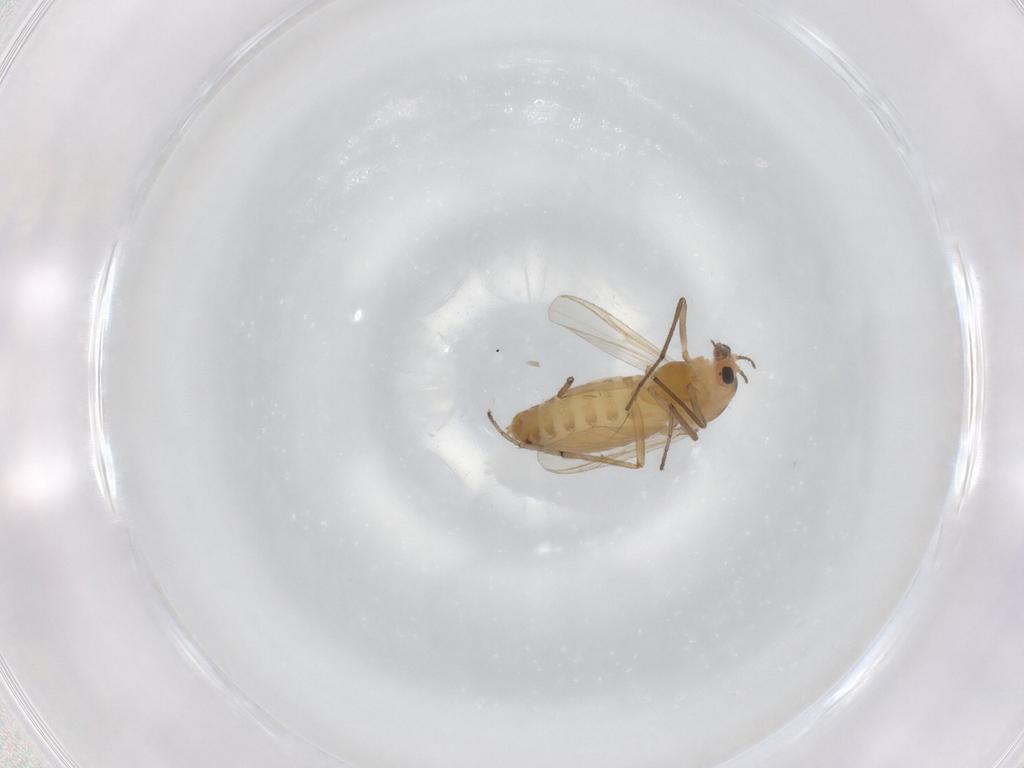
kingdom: Animalia
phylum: Arthropoda
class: Insecta
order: Diptera
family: Chironomidae
